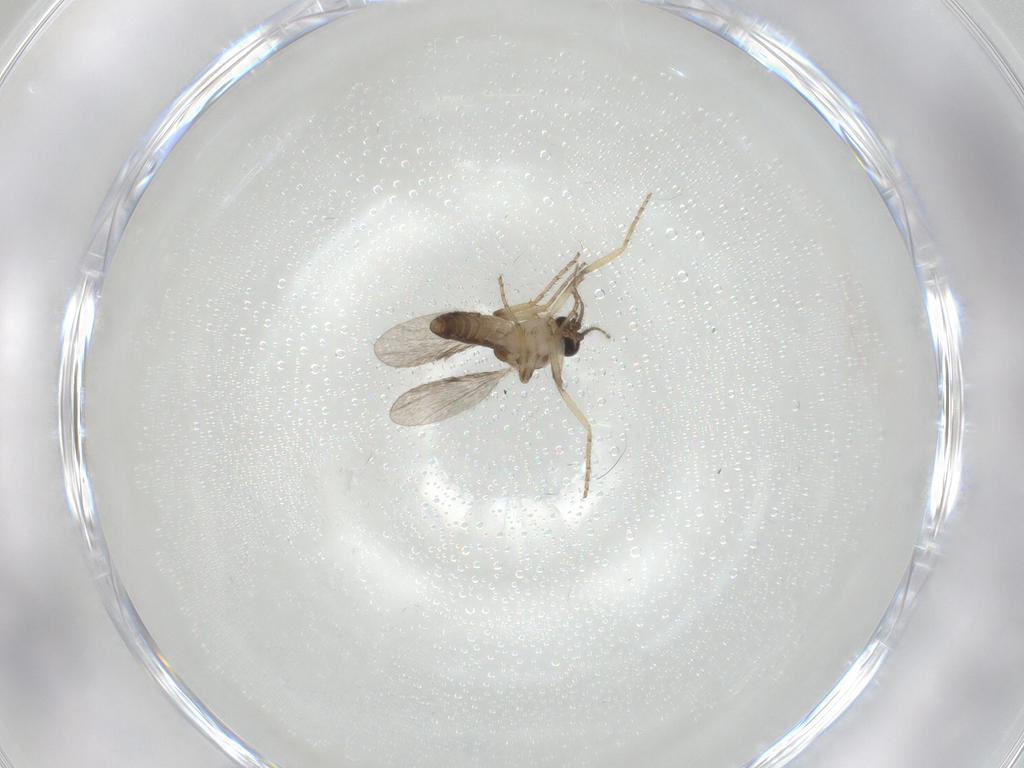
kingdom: Animalia
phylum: Arthropoda
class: Insecta
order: Diptera
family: Ceratopogonidae
